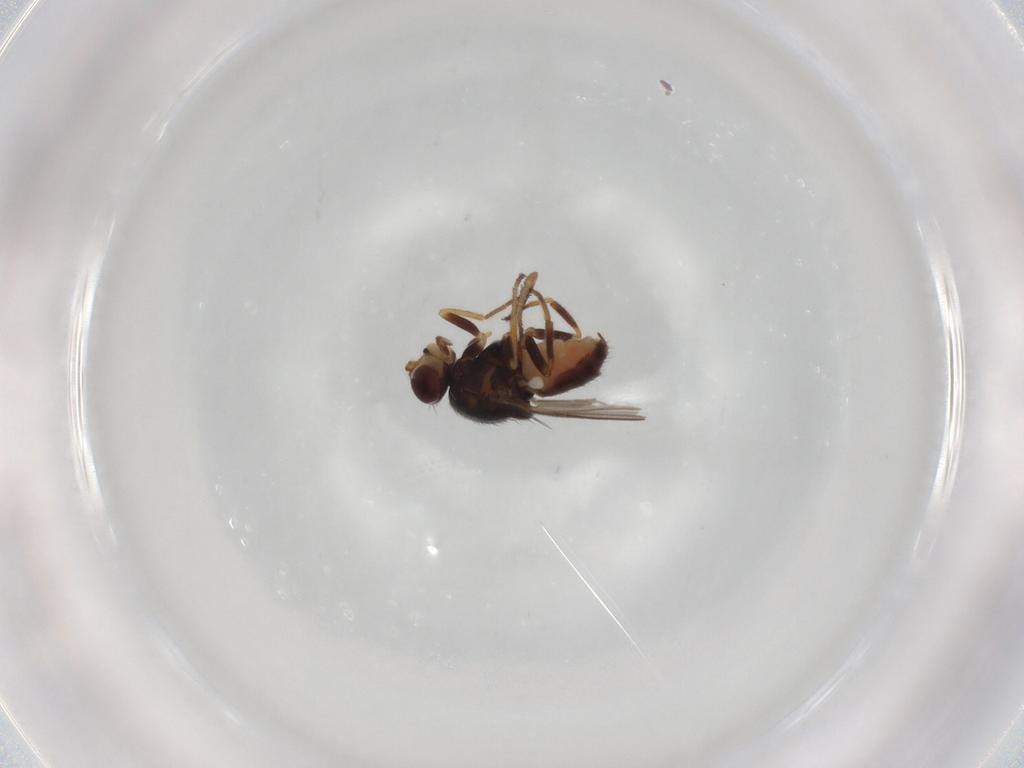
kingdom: Animalia
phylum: Arthropoda
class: Insecta
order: Diptera
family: Chloropidae
